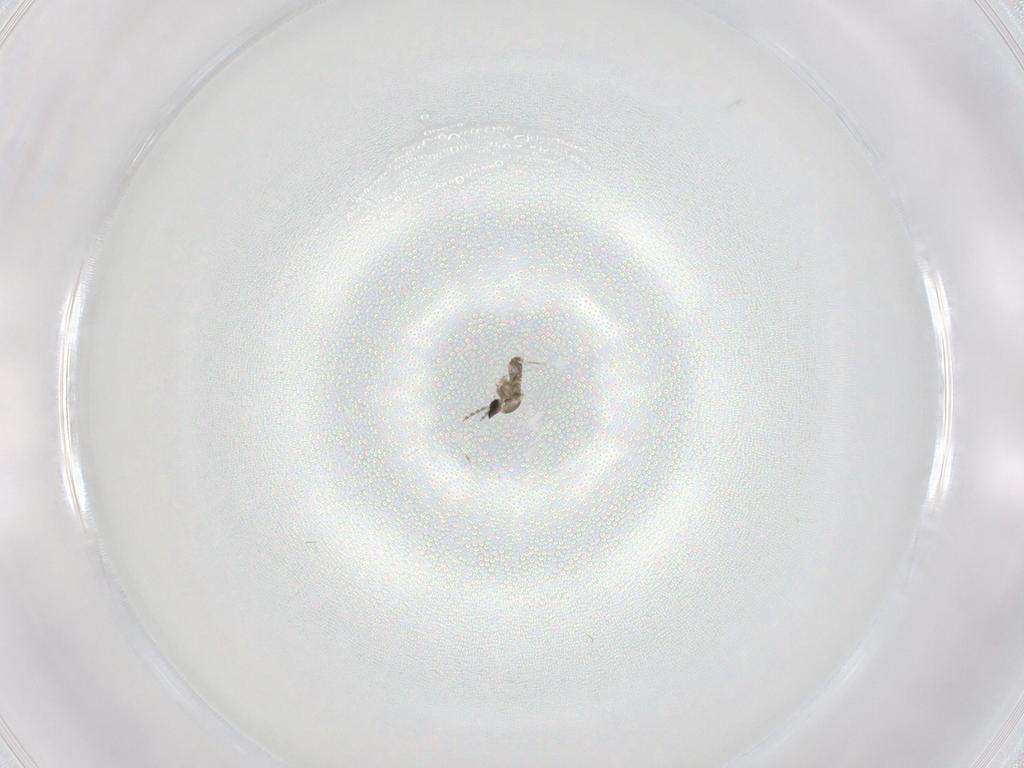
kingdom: Animalia
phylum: Arthropoda
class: Insecta
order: Diptera
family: Cecidomyiidae
